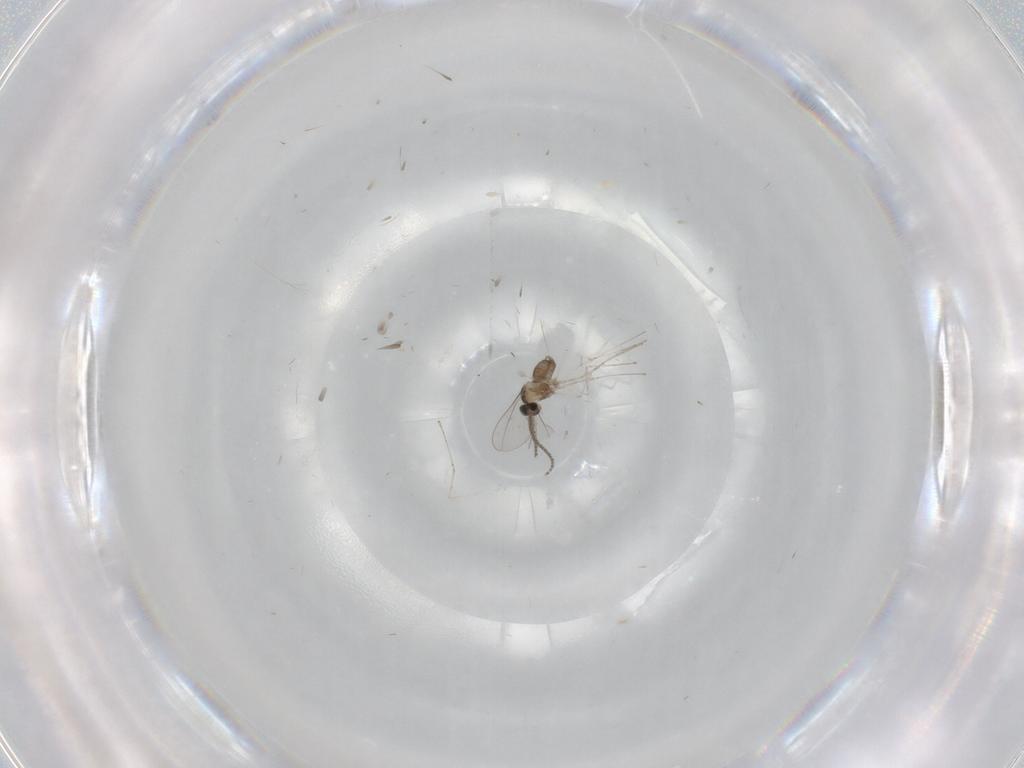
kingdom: Animalia
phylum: Arthropoda
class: Insecta
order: Diptera
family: Cecidomyiidae
